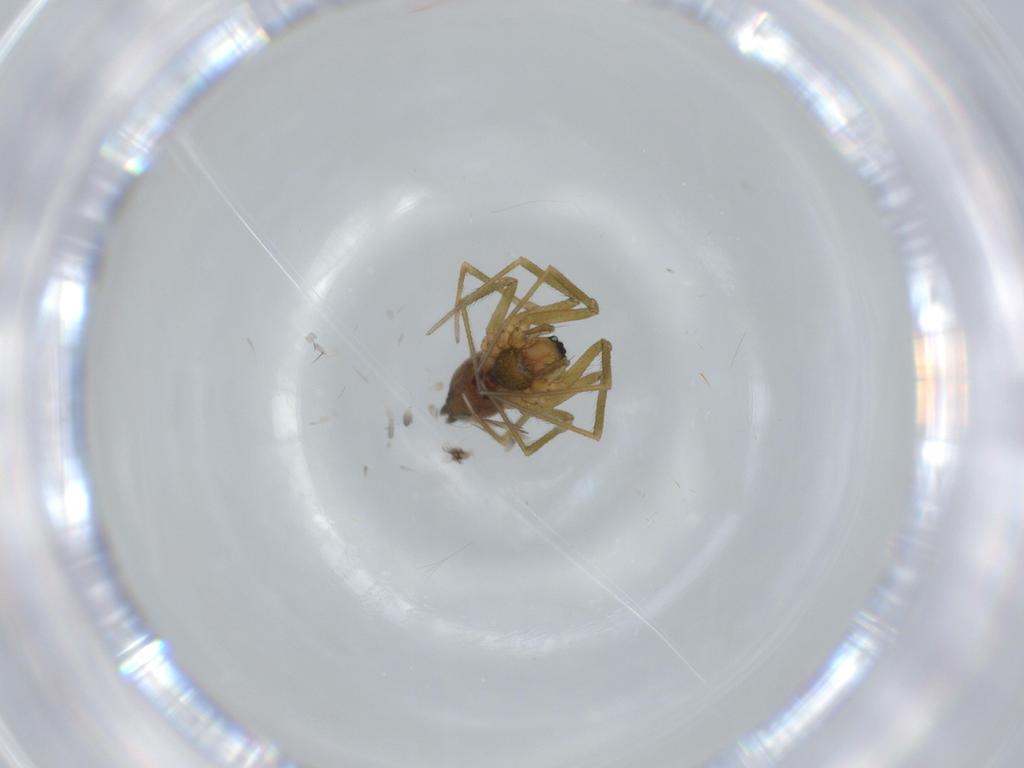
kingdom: Animalia
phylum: Arthropoda
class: Arachnida
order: Araneae
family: Linyphiidae
